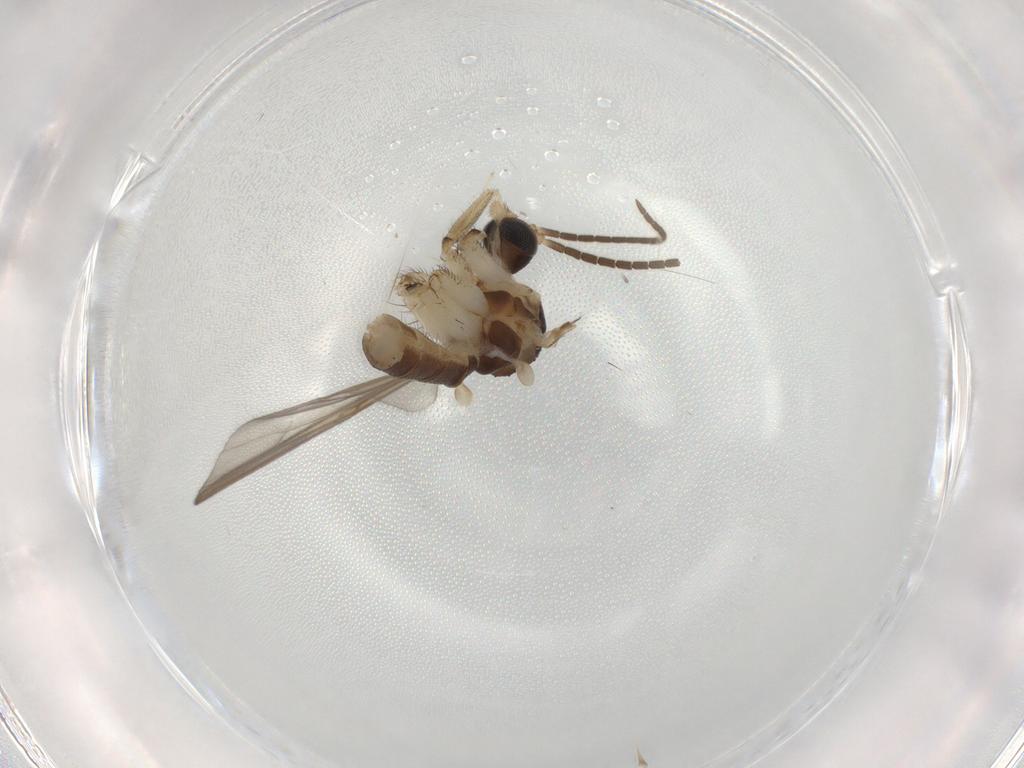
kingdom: Animalia
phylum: Arthropoda
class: Insecta
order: Diptera
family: Mycetophilidae
